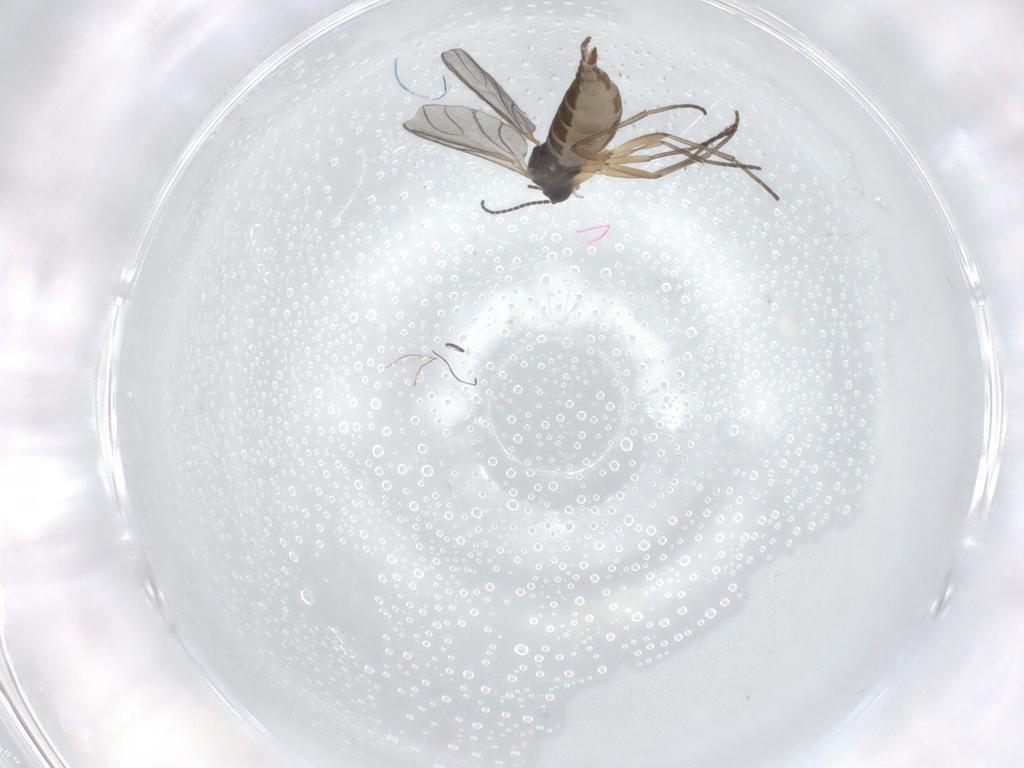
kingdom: Animalia
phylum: Arthropoda
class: Insecta
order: Diptera
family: Sciaridae
